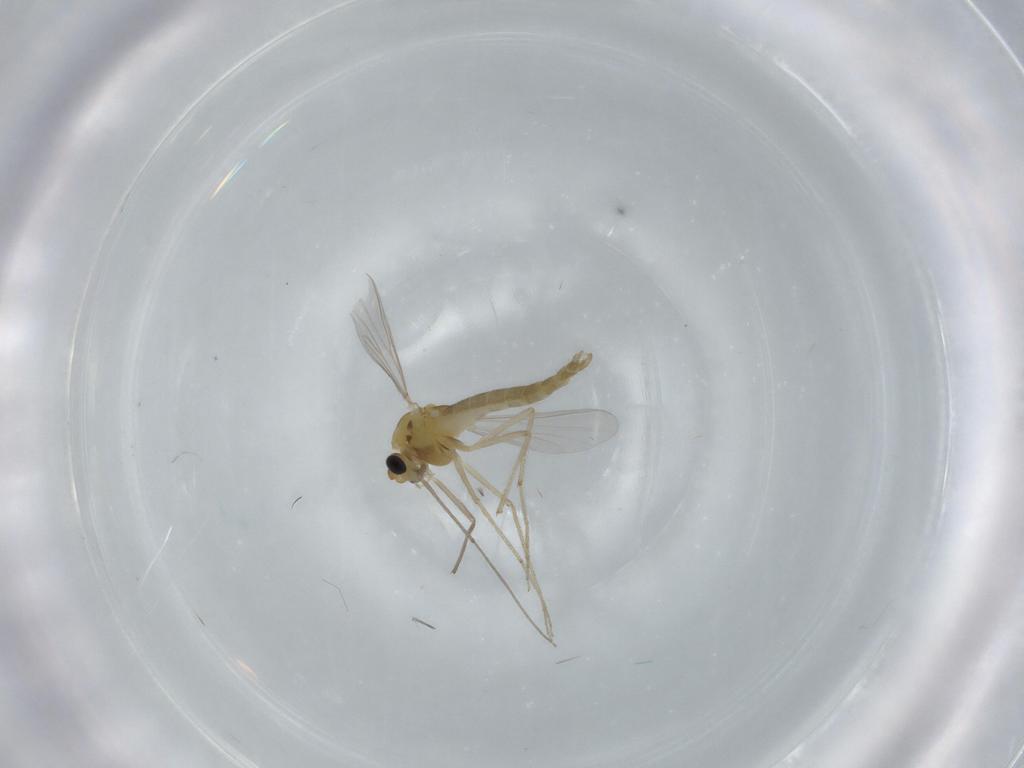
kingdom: Animalia
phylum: Arthropoda
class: Insecta
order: Diptera
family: Chironomidae
